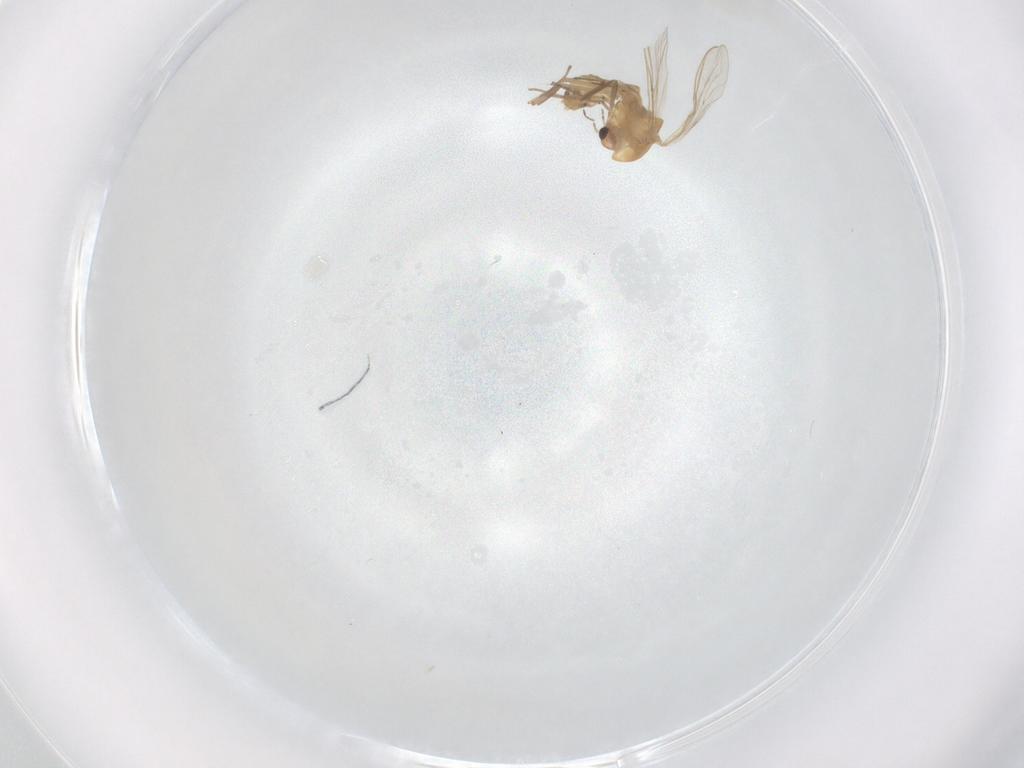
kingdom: Animalia
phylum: Arthropoda
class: Insecta
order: Diptera
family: Chironomidae
